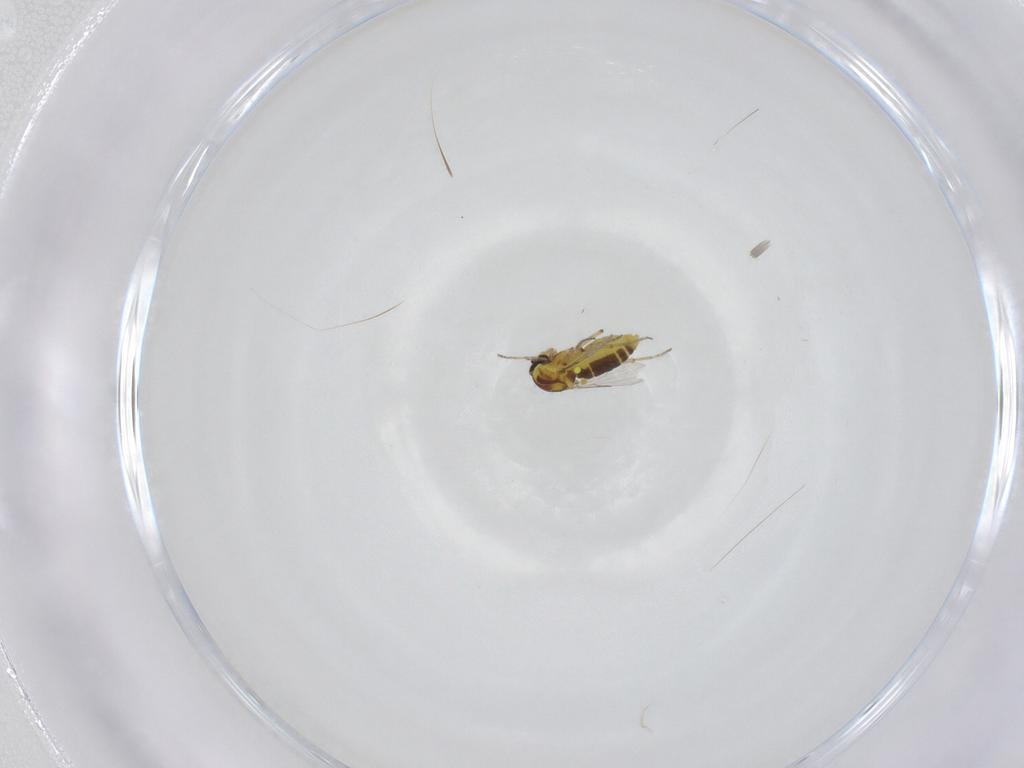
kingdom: Animalia
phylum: Arthropoda
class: Insecta
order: Diptera
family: Ceratopogonidae
